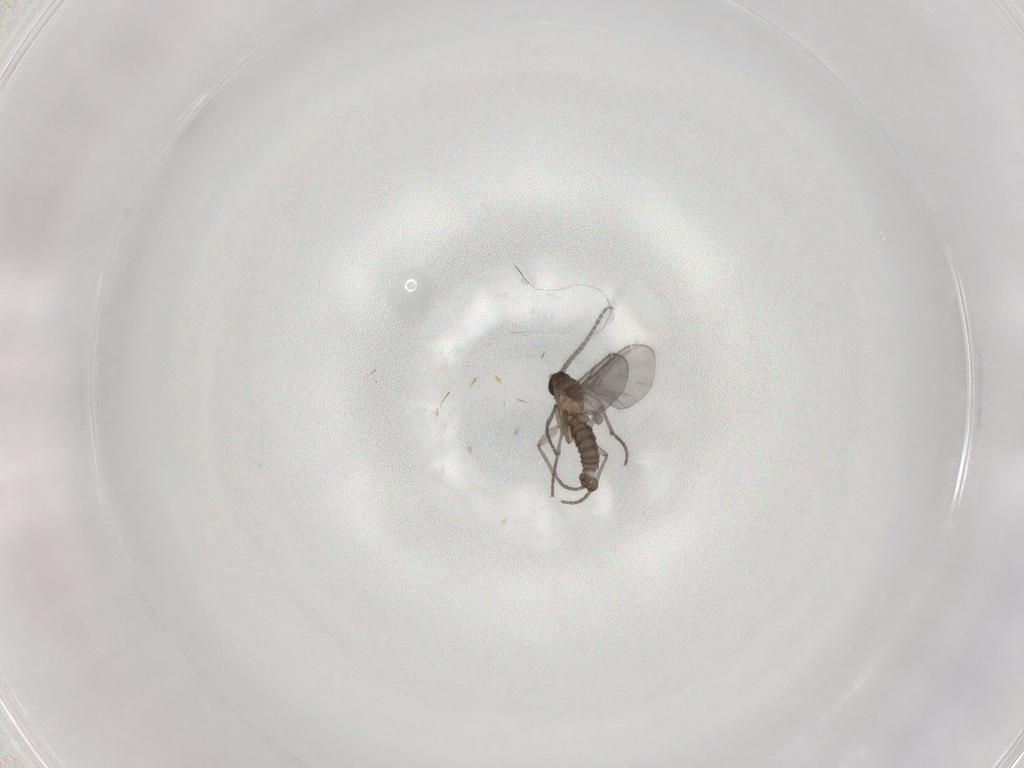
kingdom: Animalia
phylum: Arthropoda
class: Insecta
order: Diptera
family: Sciaridae
